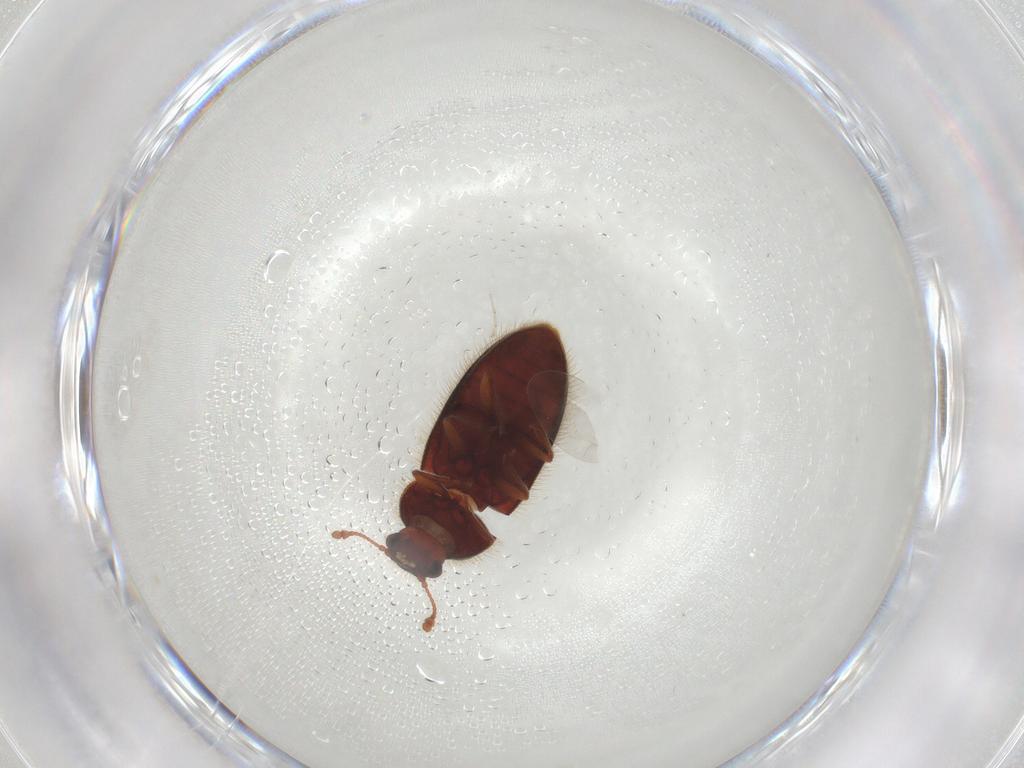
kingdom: Animalia
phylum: Arthropoda
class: Insecta
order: Coleoptera
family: Biphyllidae
